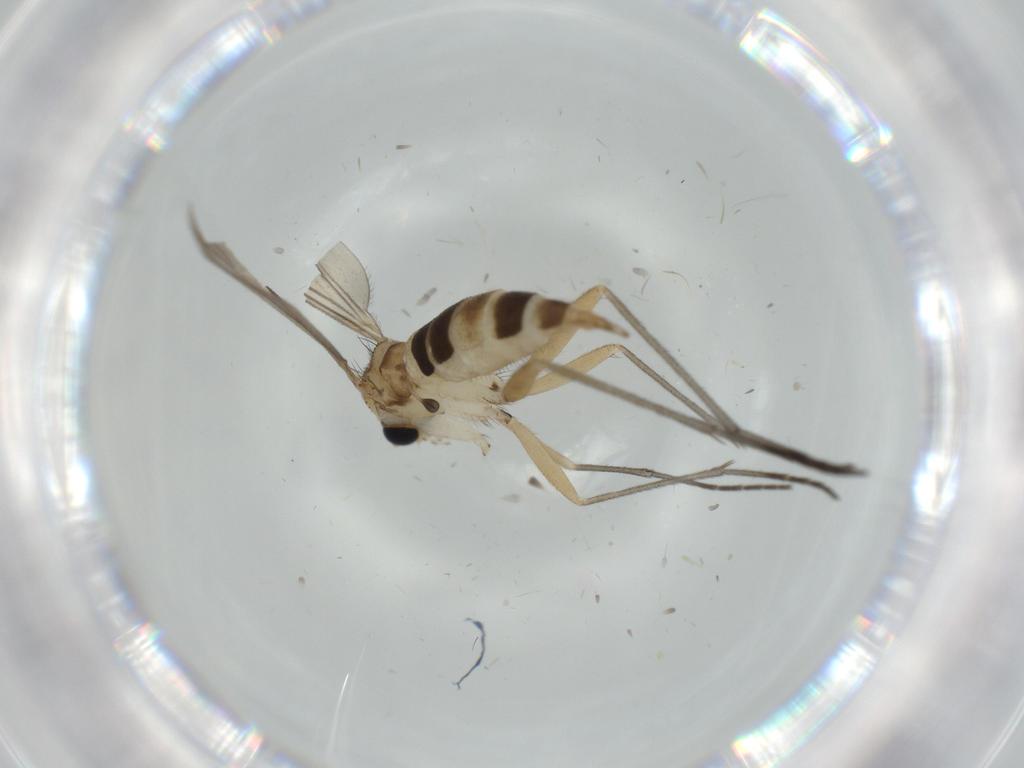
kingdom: Animalia
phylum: Arthropoda
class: Insecta
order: Diptera
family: Sciaridae
